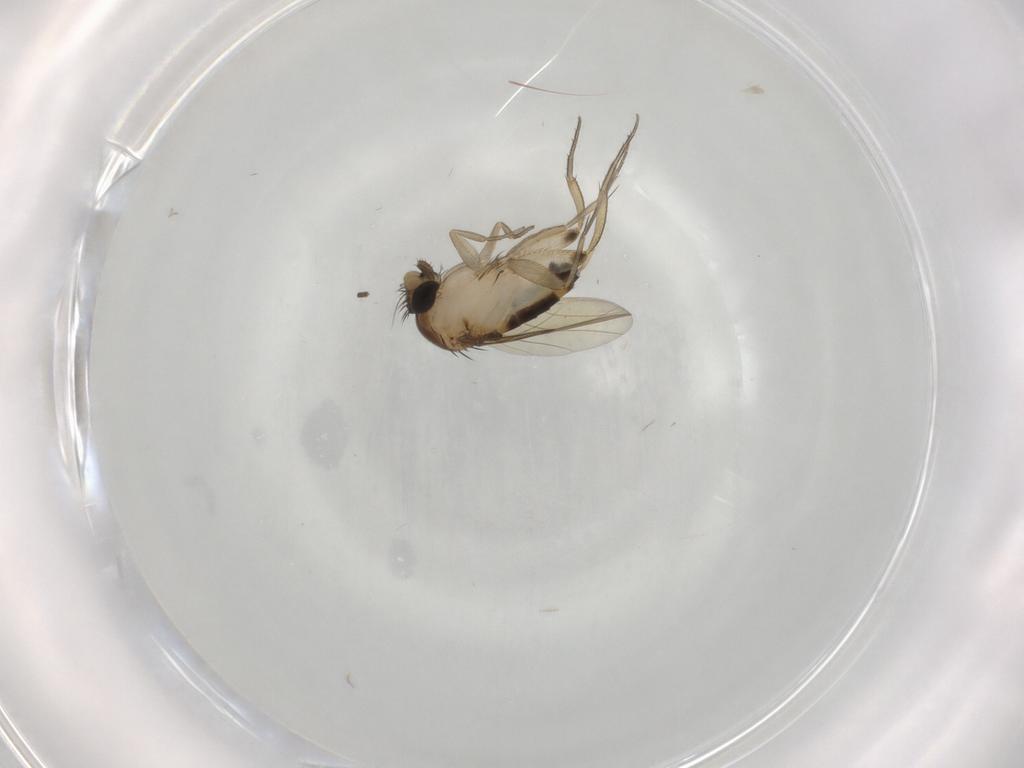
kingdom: Animalia
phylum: Arthropoda
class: Insecta
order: Diptera
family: Phoridae
